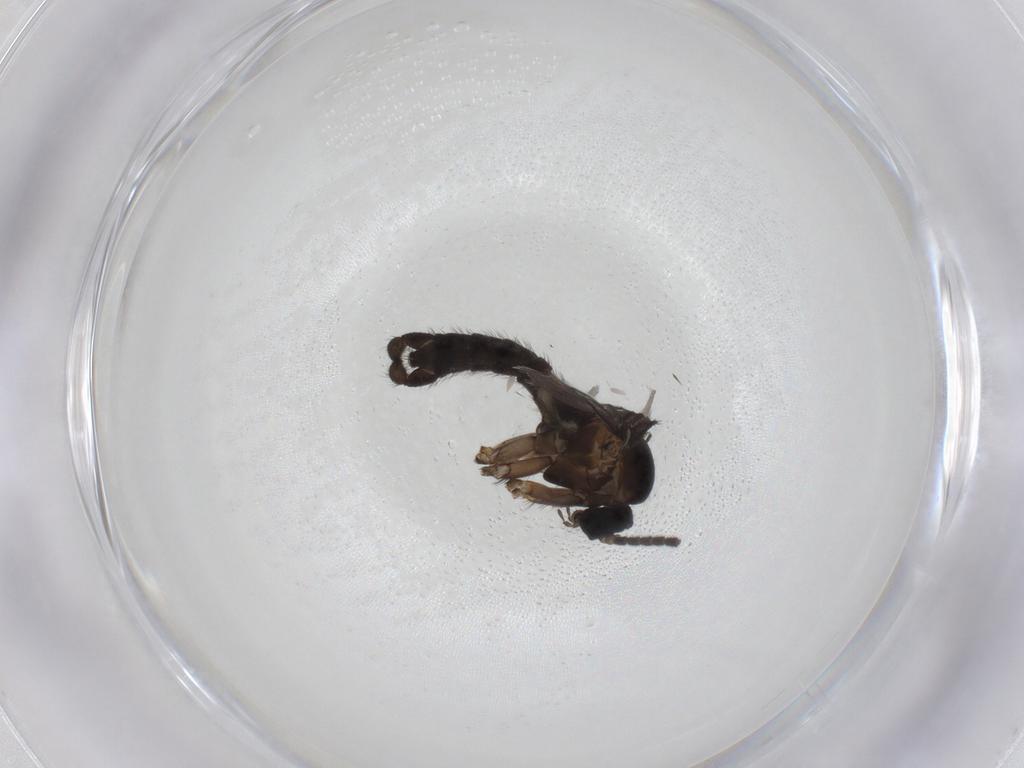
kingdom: Animalia
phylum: Arthropoda
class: Insecta
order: Diptera
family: Sciaridae
